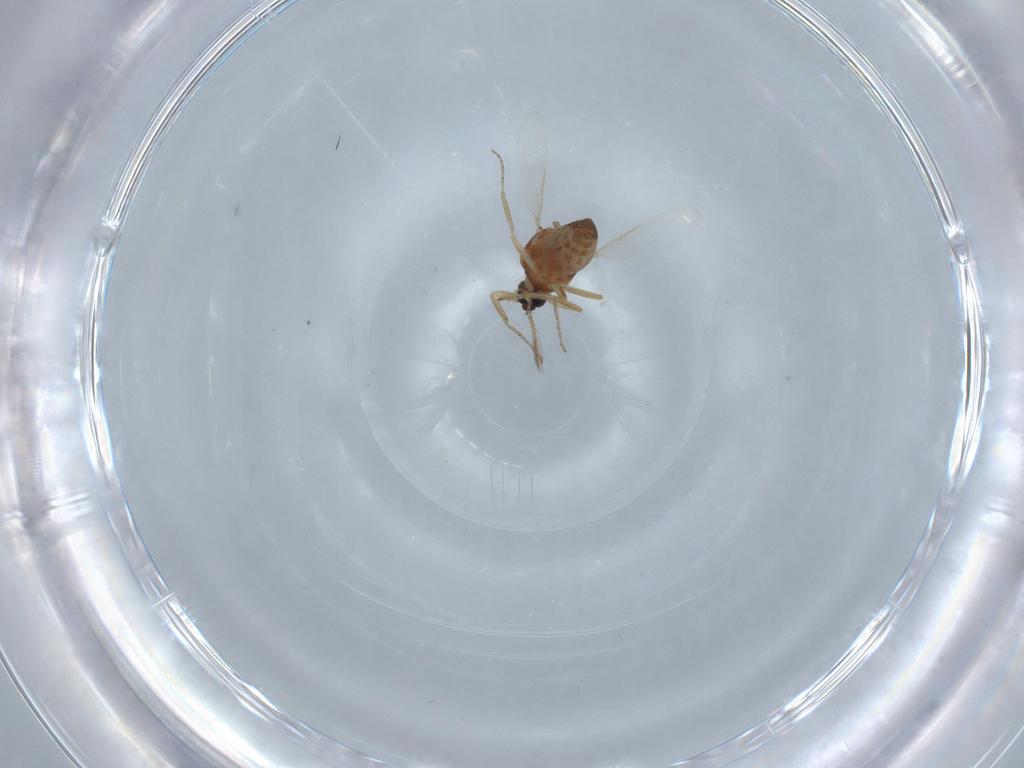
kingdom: Animalia
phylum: Arthropoda
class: Insecta
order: Diptera
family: Ceratopogonidae
